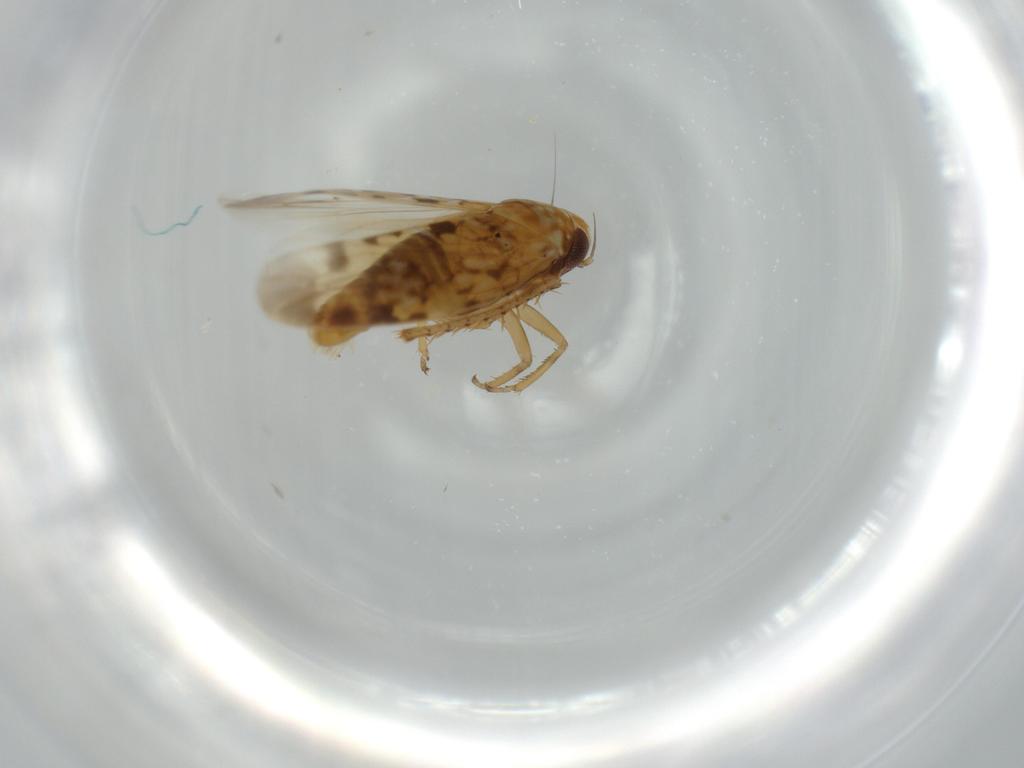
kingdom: Animalia
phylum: Arthropoda
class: Insecta
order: Hemiptera
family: Cicadellidae
